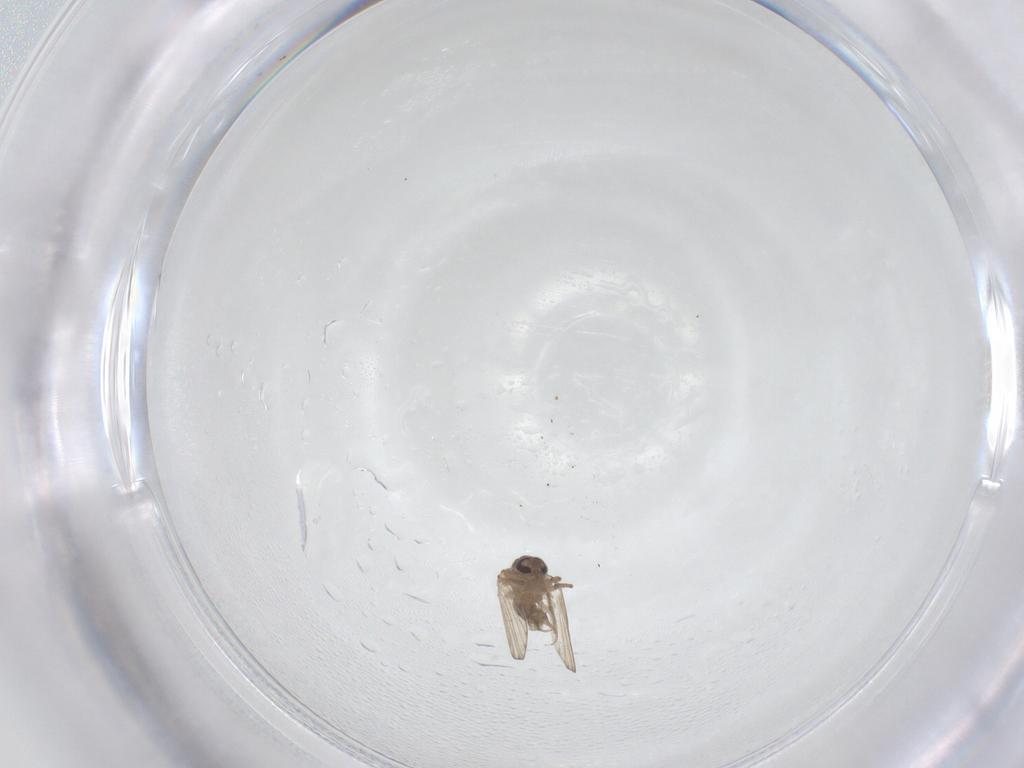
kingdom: Animalia
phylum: Arthropoda
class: Insecta
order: Diptera
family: Psychodidae
